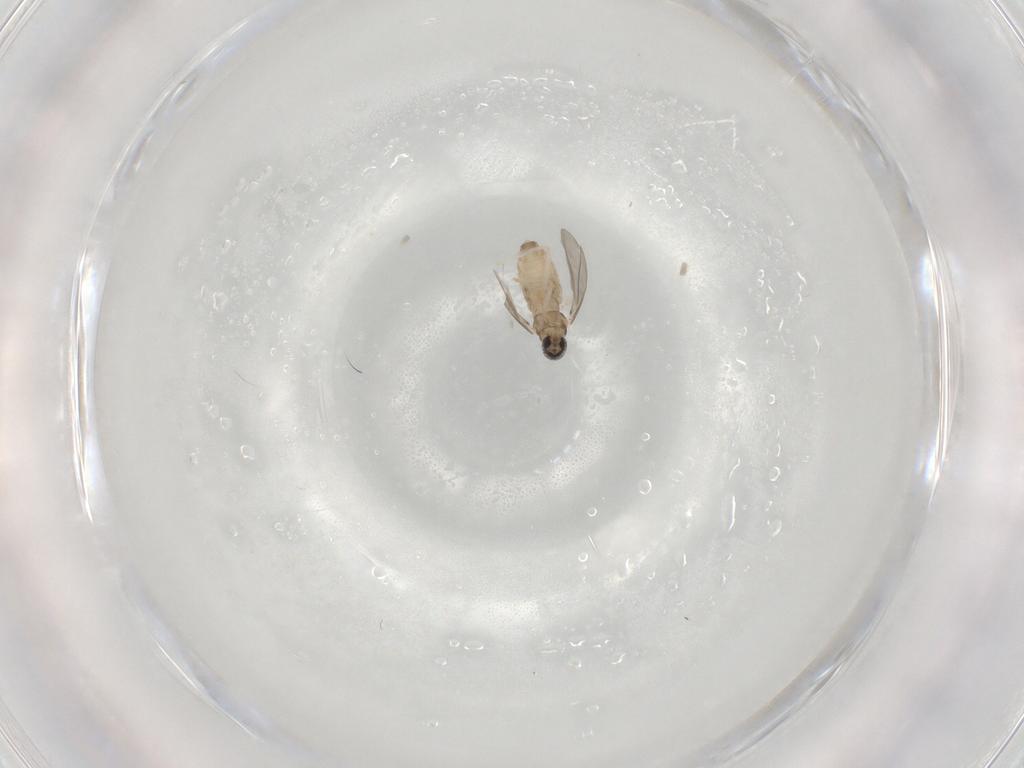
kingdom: Animalia
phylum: Arthropoda
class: Insecta
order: Diptera
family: Cecidomyiidae
